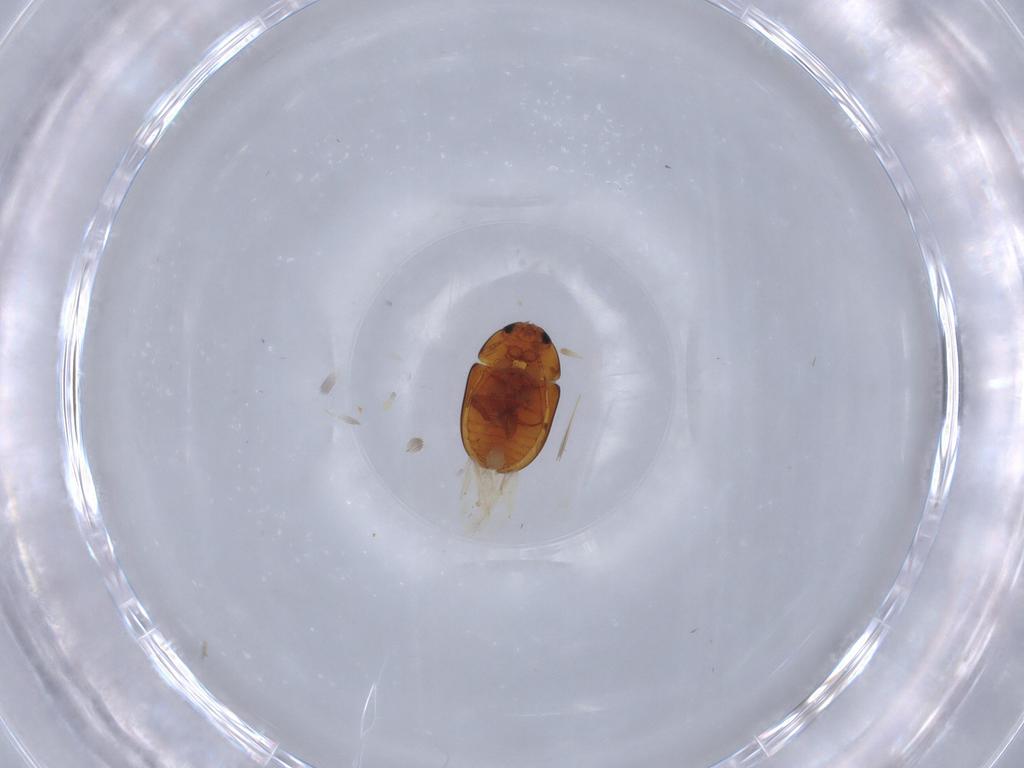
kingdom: Animalia
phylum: Arthropoda
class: Insecta
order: Coleoptera
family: Phalacridae
